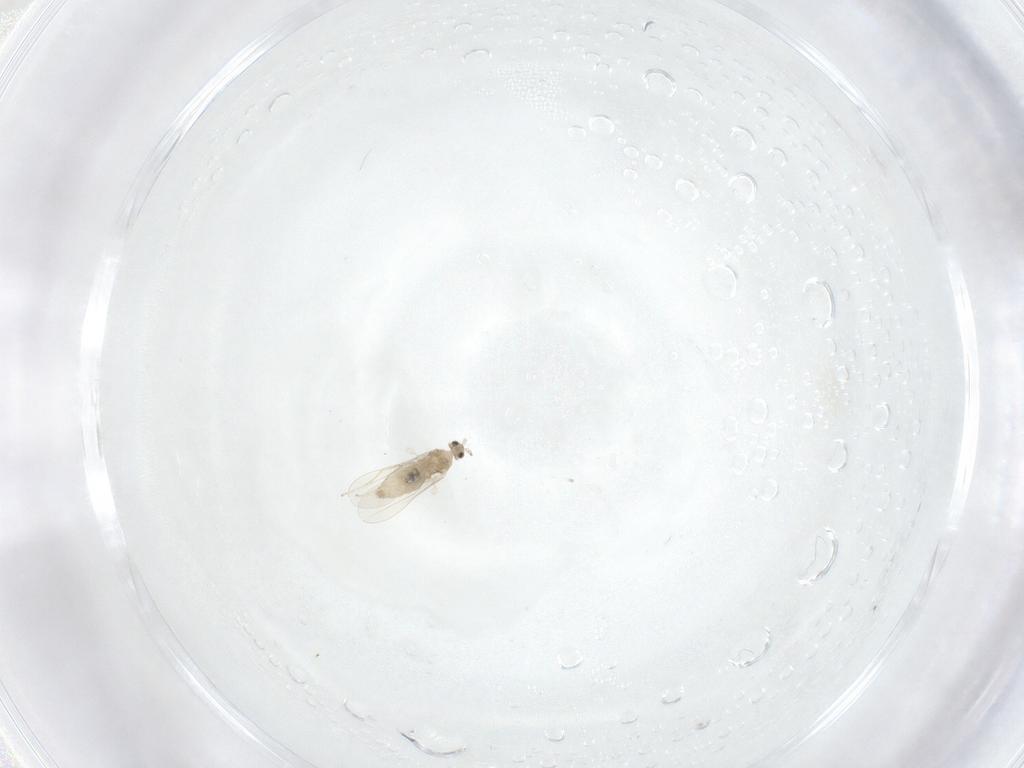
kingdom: Animalia
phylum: Arthropoda
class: Insecta
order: Diptera
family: Cecidomyiidae
